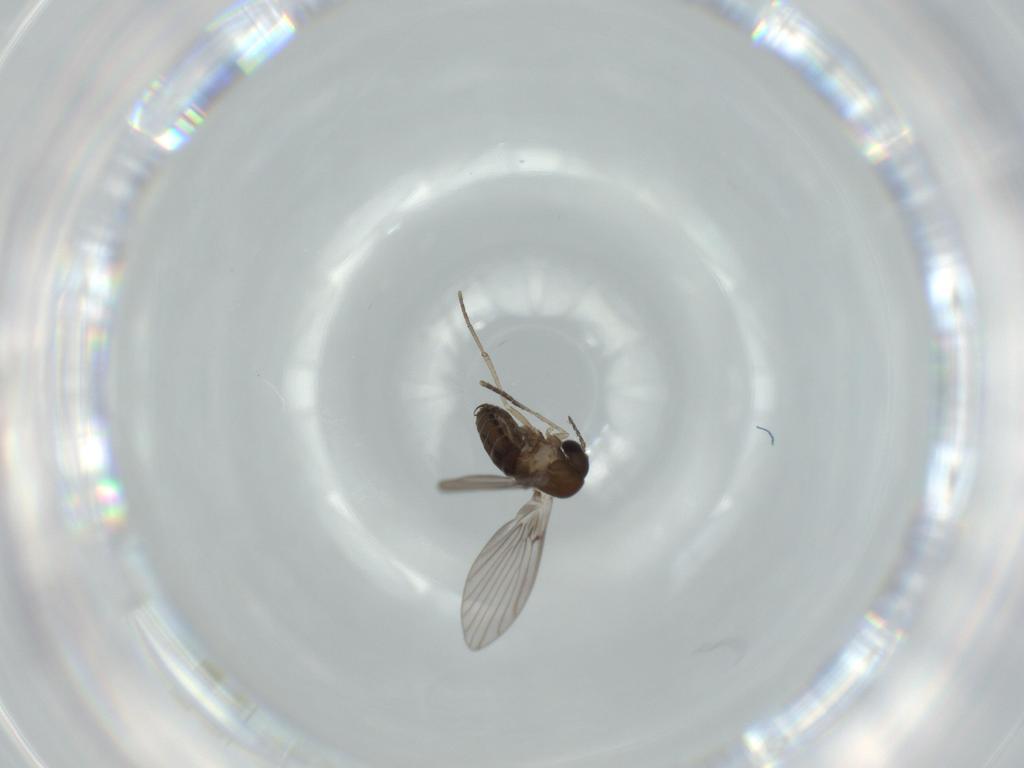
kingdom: Animalia
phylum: Arthropoda
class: Insecta
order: Diptera
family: Psychodidae
